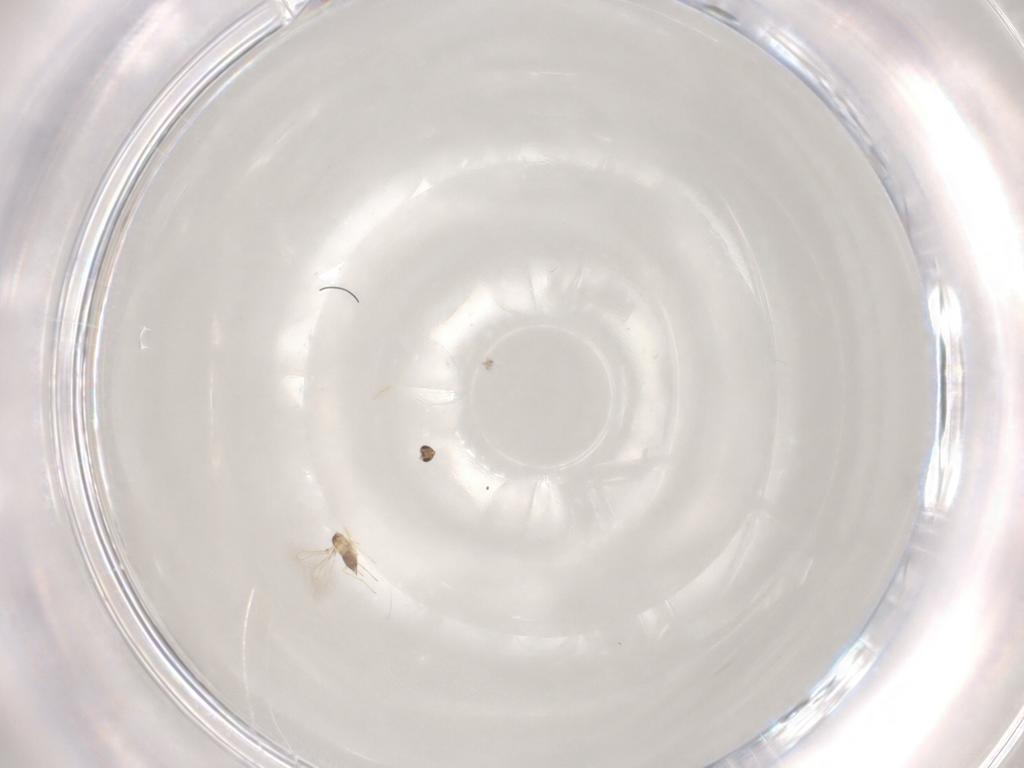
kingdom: Animalia
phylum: Arthropoda
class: Insecta
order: Hymenoptera
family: Mymaridae
